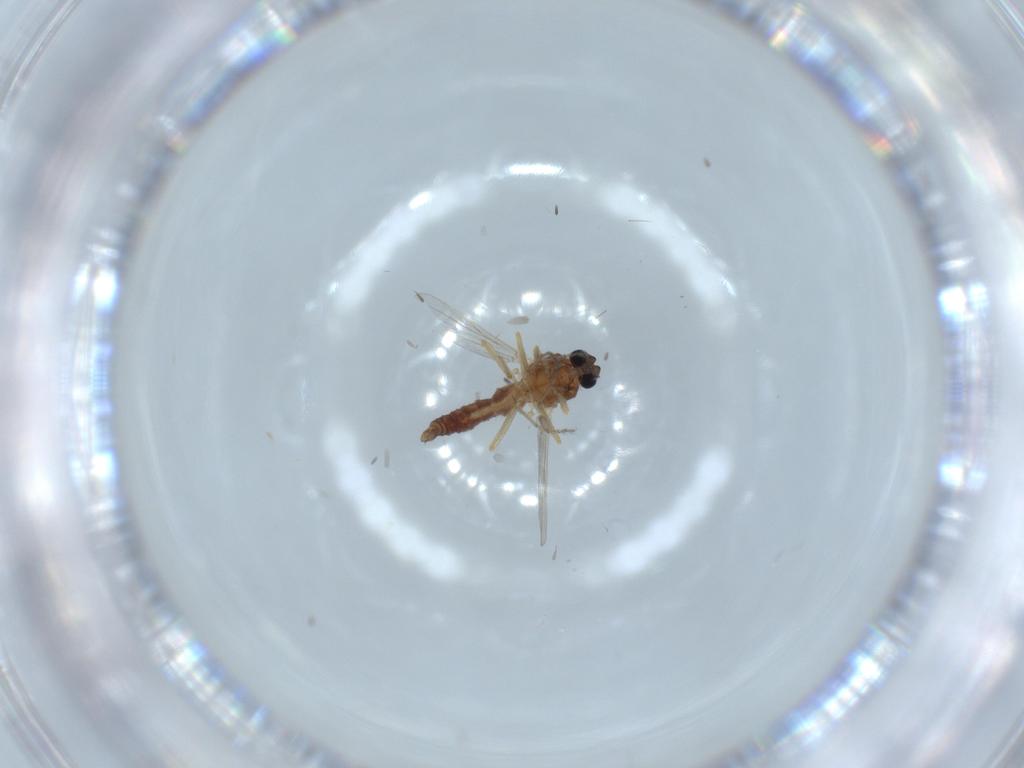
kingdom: Animalia
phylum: Arthropoda
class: Insecta
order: Diptera
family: Ceratopogonidae
